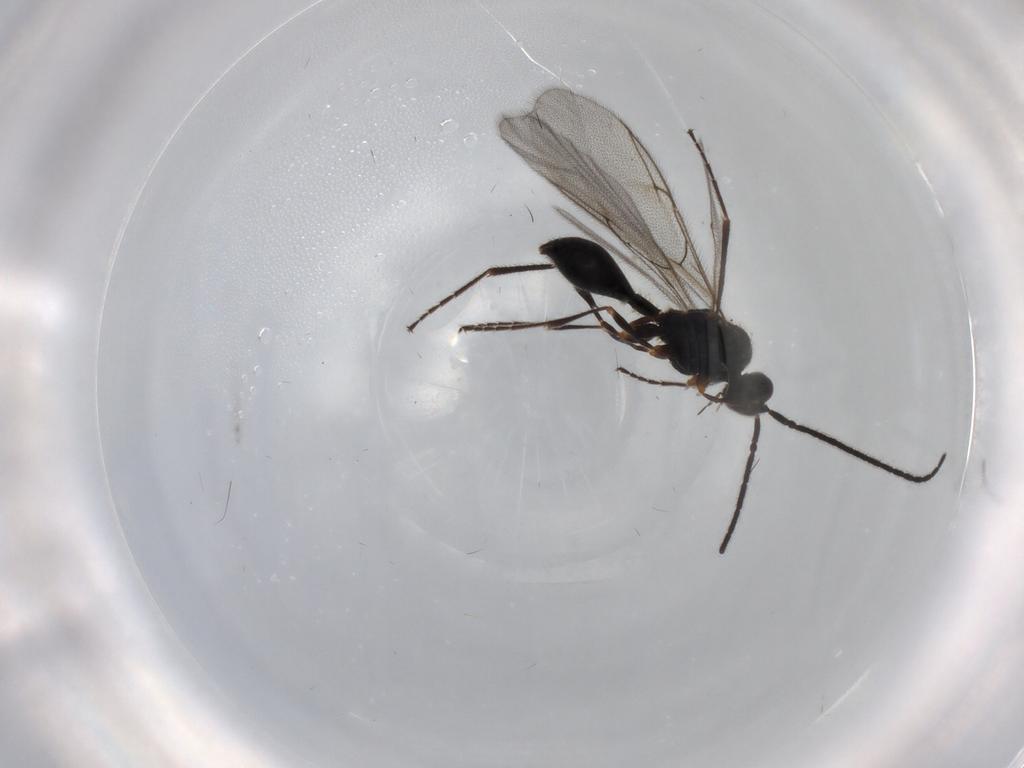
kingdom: Animalia
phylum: Arthropoda
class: Insecta
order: Hymenoptera
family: Diapriidae
